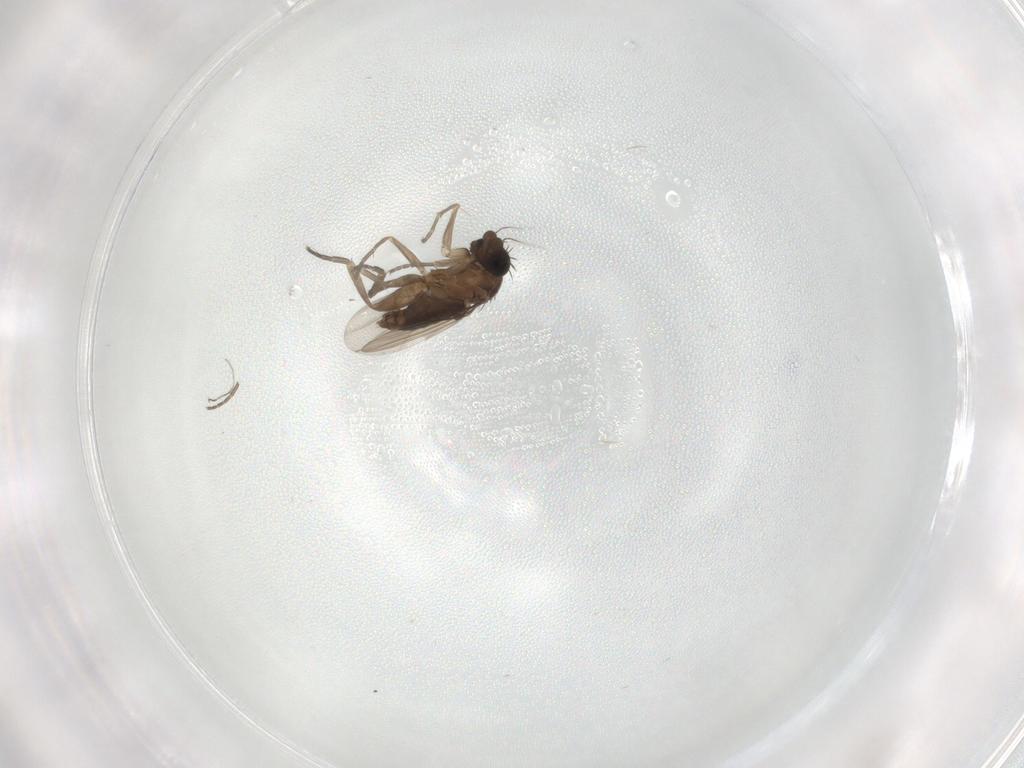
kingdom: Animalia
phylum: Arthropoda
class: Insecta
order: Diptera
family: Phoridae
